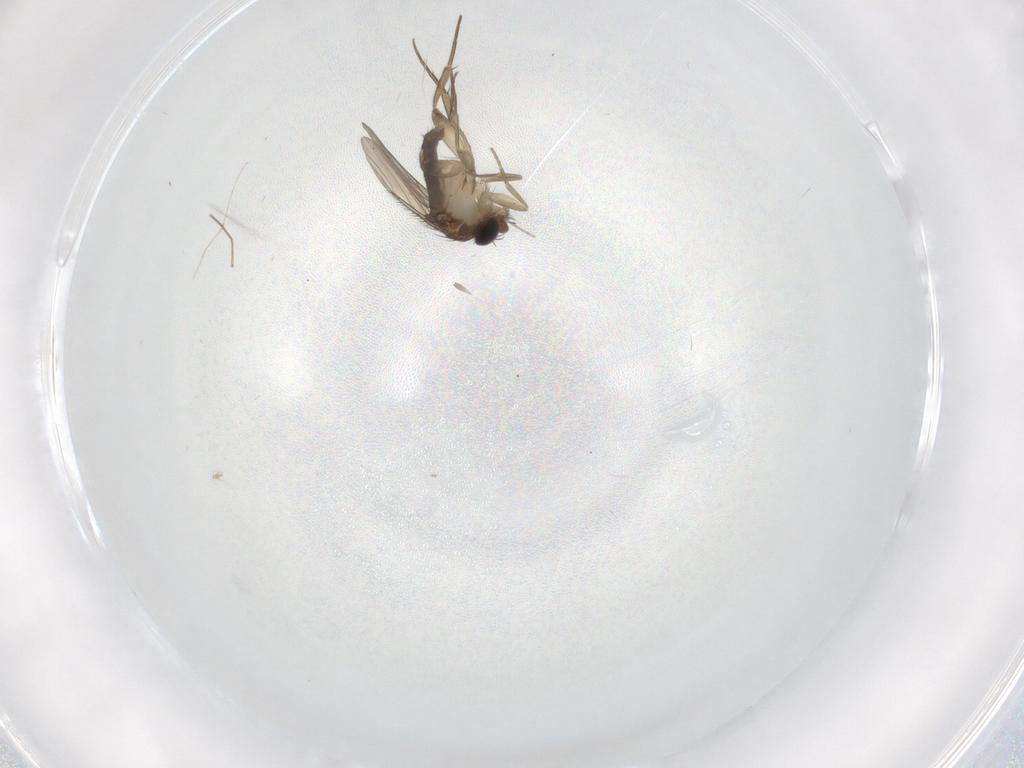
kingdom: Animalia
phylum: Arthropoda
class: Insecta
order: Diptera
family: Phoridae
